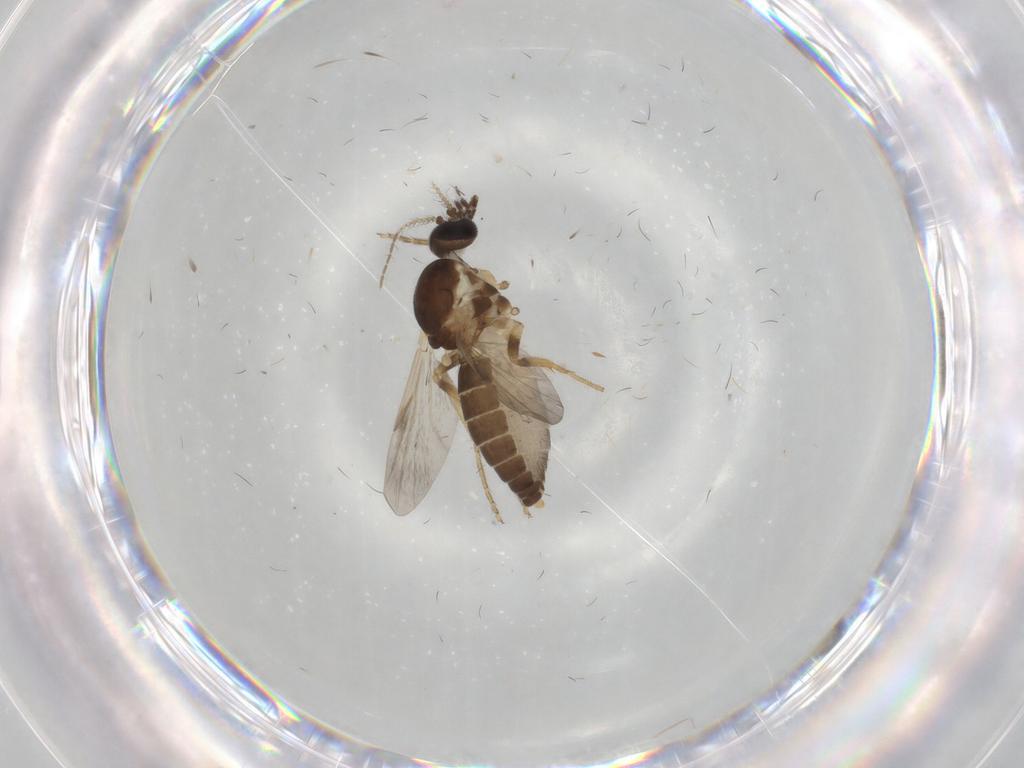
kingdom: Animalia
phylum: Arthropoda
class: Insecta
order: Diptera
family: Ceratopogonidae
